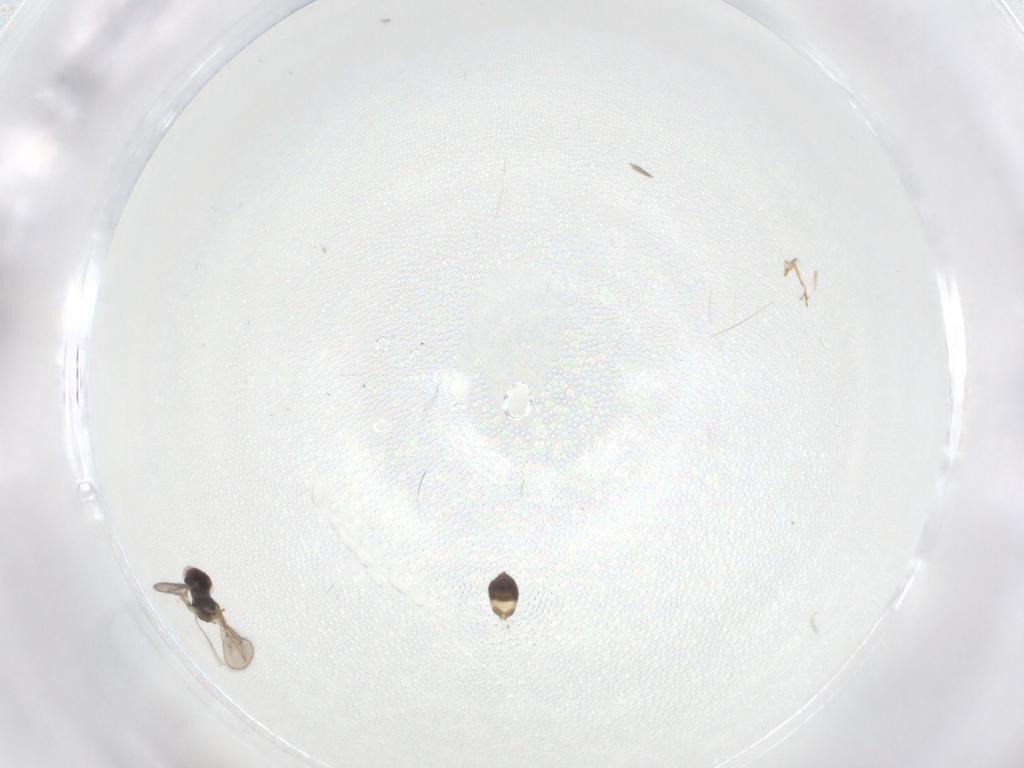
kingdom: Animalia
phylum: Arthropoda
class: Insecta
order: Hymenoptera
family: Eulophidae
